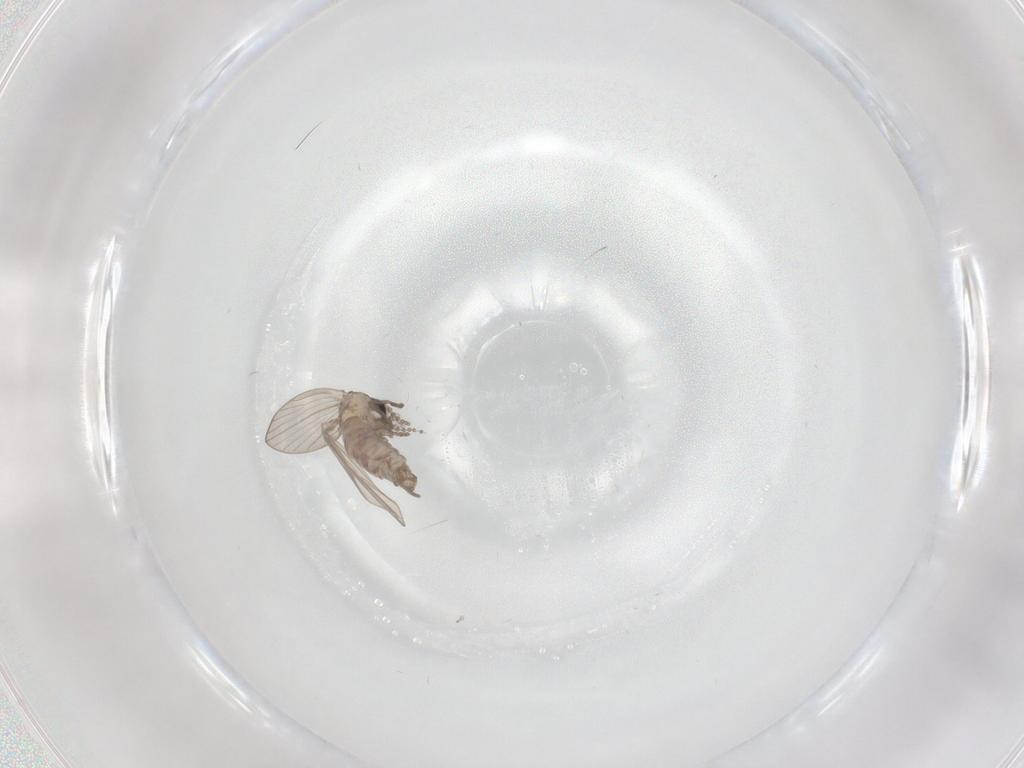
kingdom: Animalia
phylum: Arthropoda
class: Insecta
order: Diptera
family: Psychodidae
